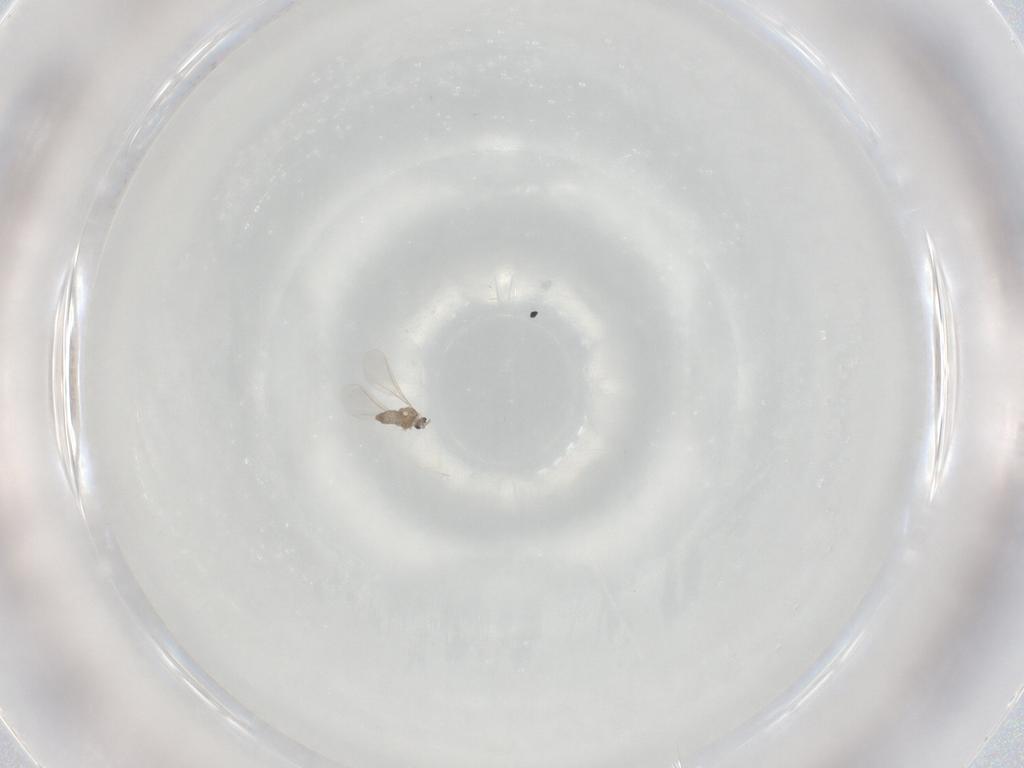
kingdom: Animalia
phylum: Arthropoda
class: Insecta
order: Diptera
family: Cecidomyiidae
